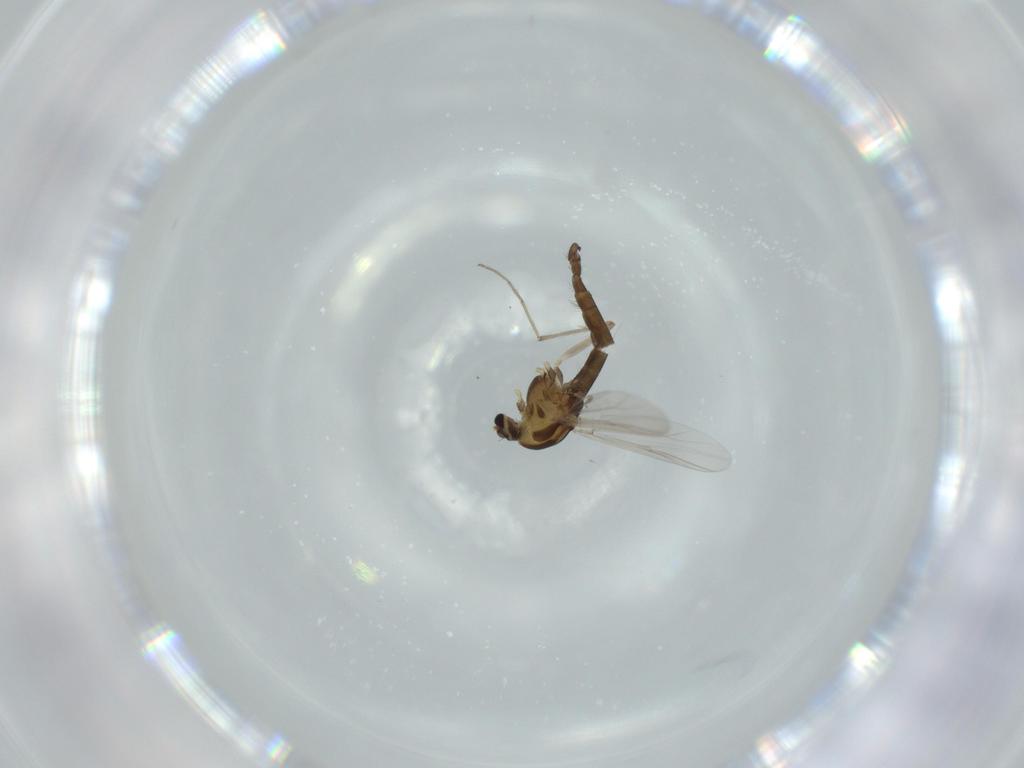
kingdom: Animalia
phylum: Arthropoda
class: Insecta
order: Diptera
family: Chironomidae
